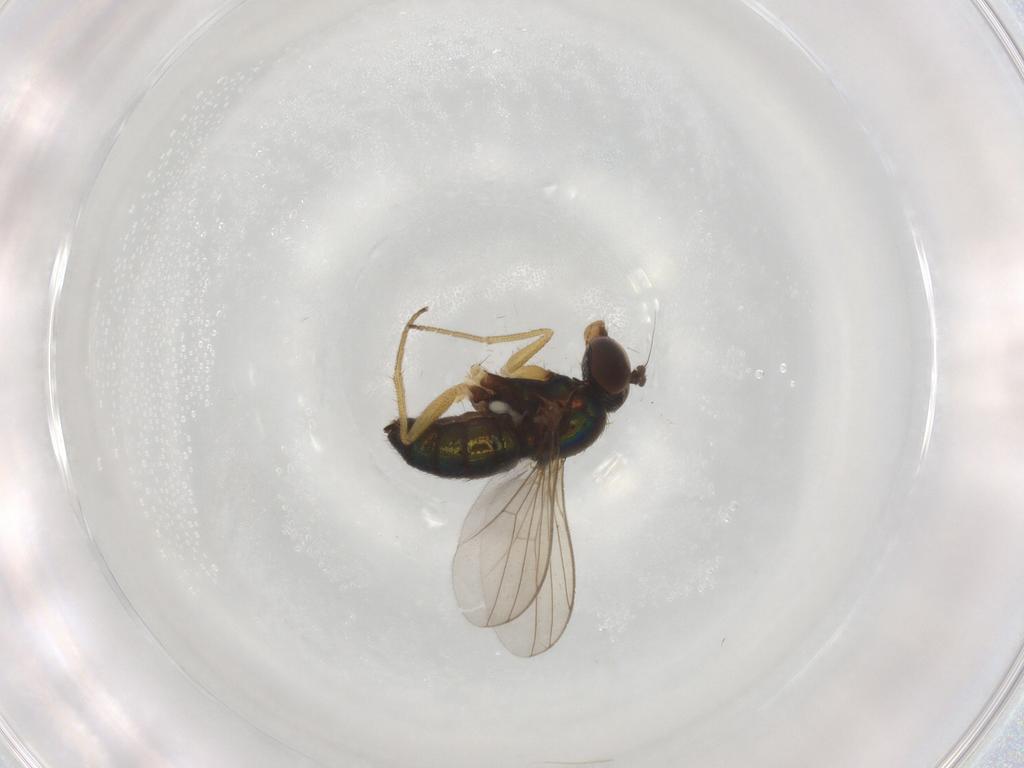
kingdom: Animalia
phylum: Arthropoda
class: Insecta
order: Diptera
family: Dolichopodidae
